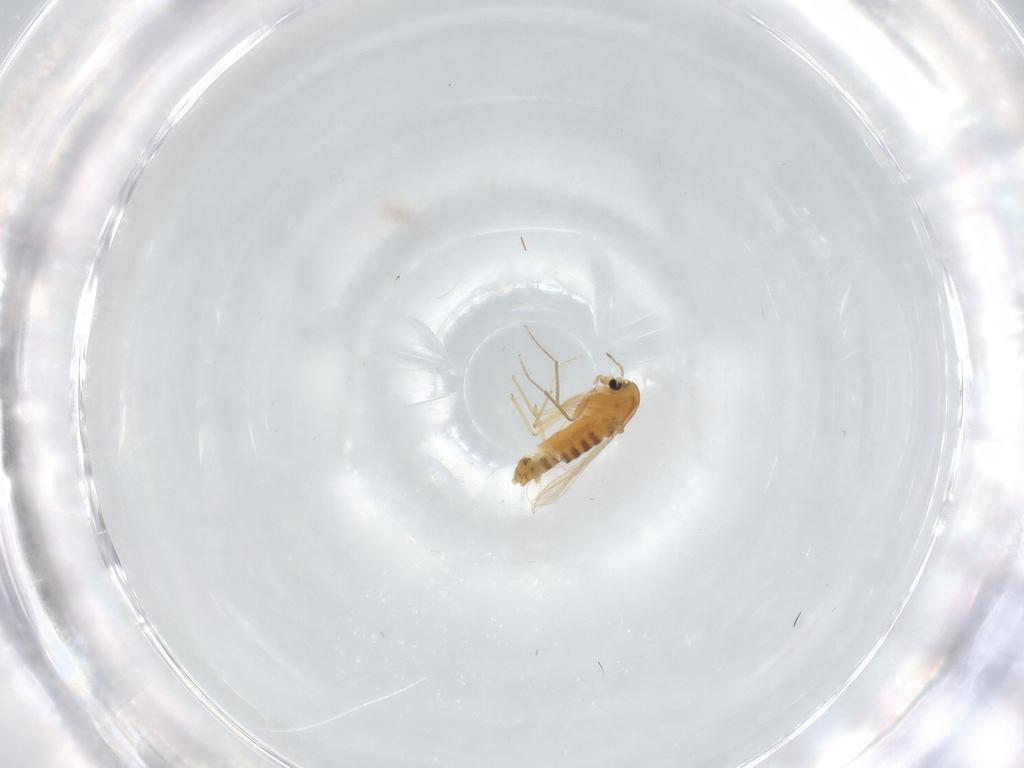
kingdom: Animalia
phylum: Arthropoda
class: Insecta
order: Diptera
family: Chironomidae
